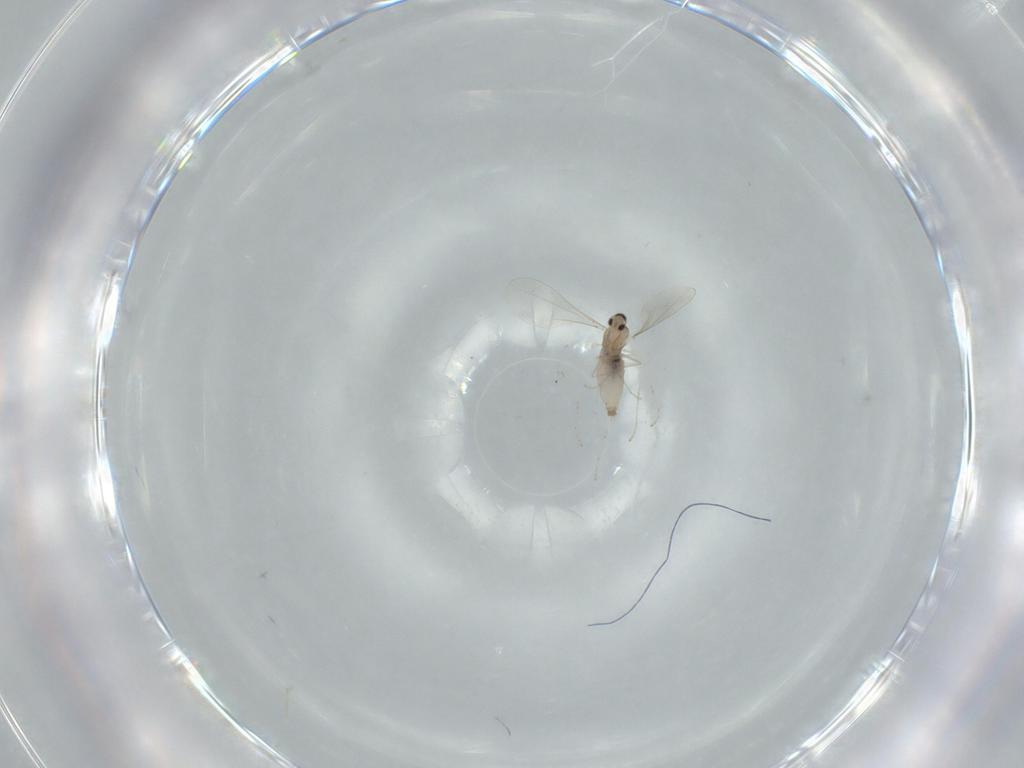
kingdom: Animalia
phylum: Arthropoda
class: Insecta
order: Diptera
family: Cecidomyiidae
